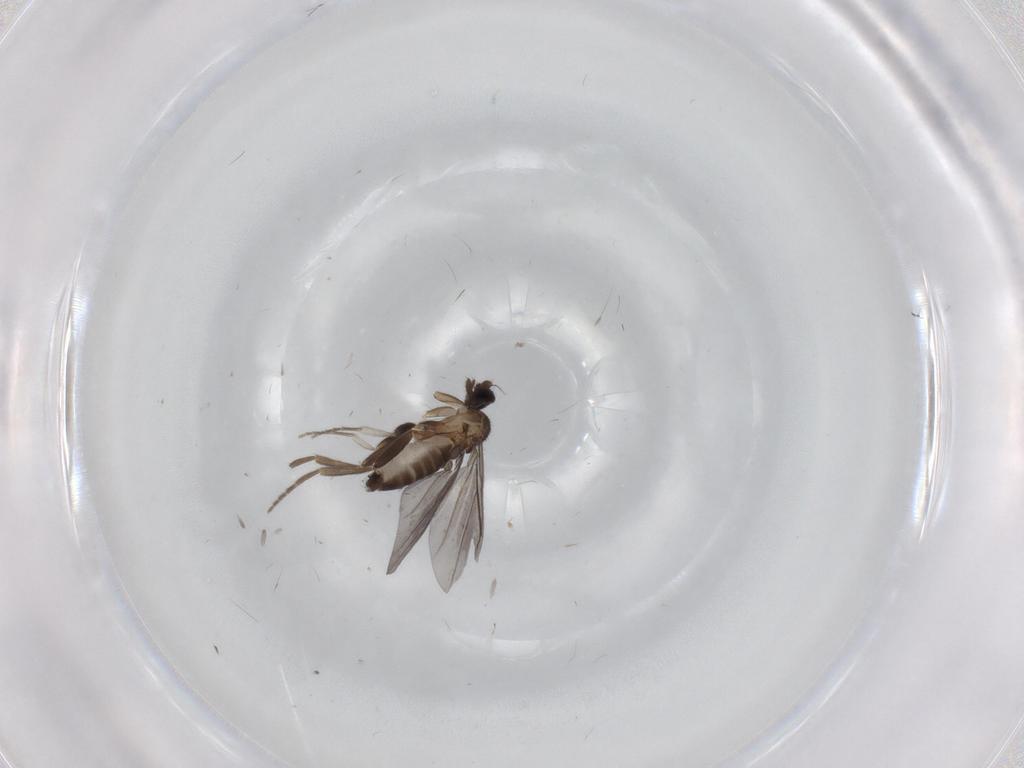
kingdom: Animalia
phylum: Arthropoda
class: Insecta
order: Diptera
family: Phoridae
